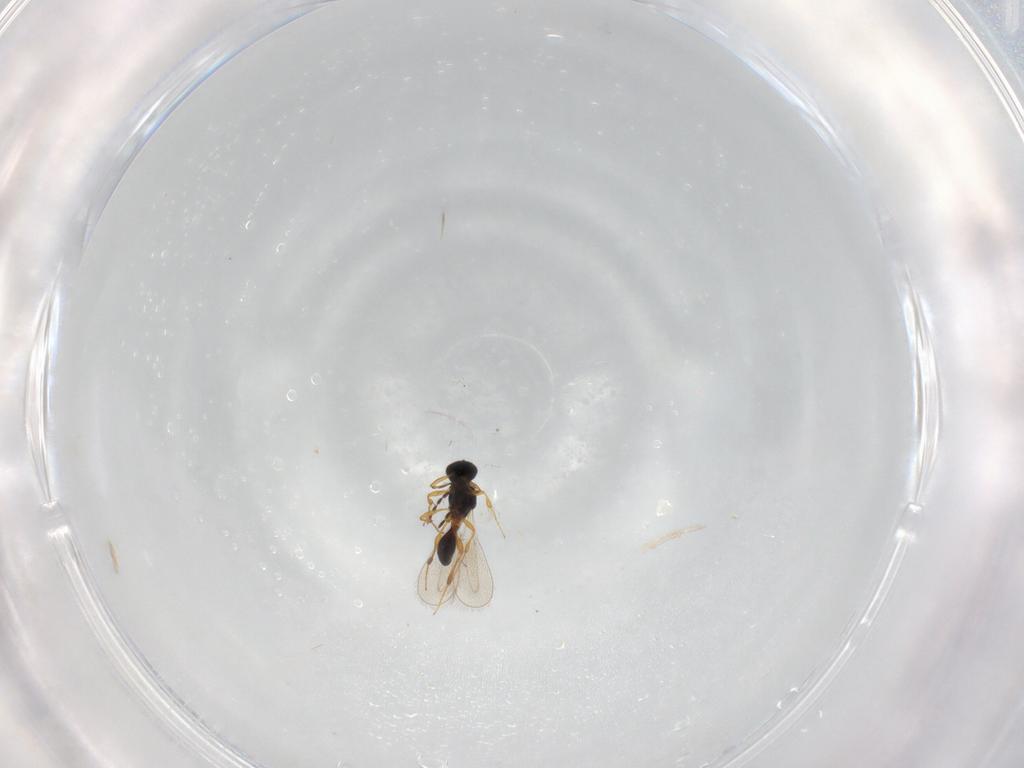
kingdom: Animalia
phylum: Arthropoda
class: Insecta
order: Hymenoptera
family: Platygastridae
